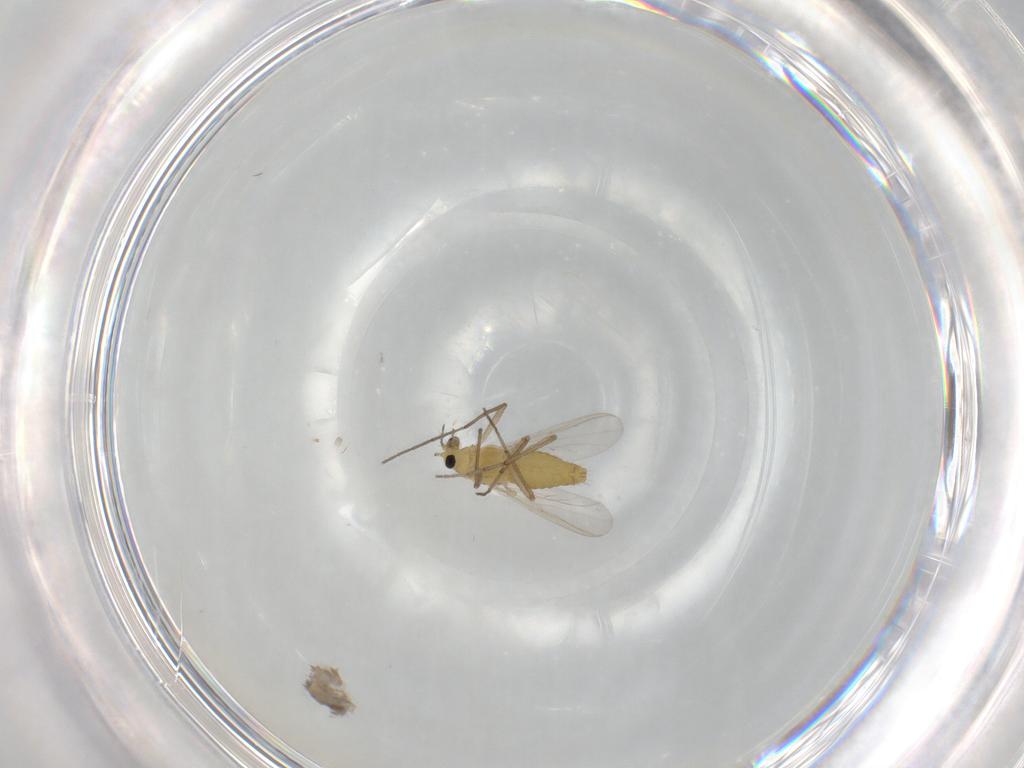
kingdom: Animalia
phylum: Arthropoda
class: Insecta
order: Diptera
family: Chironomidae
